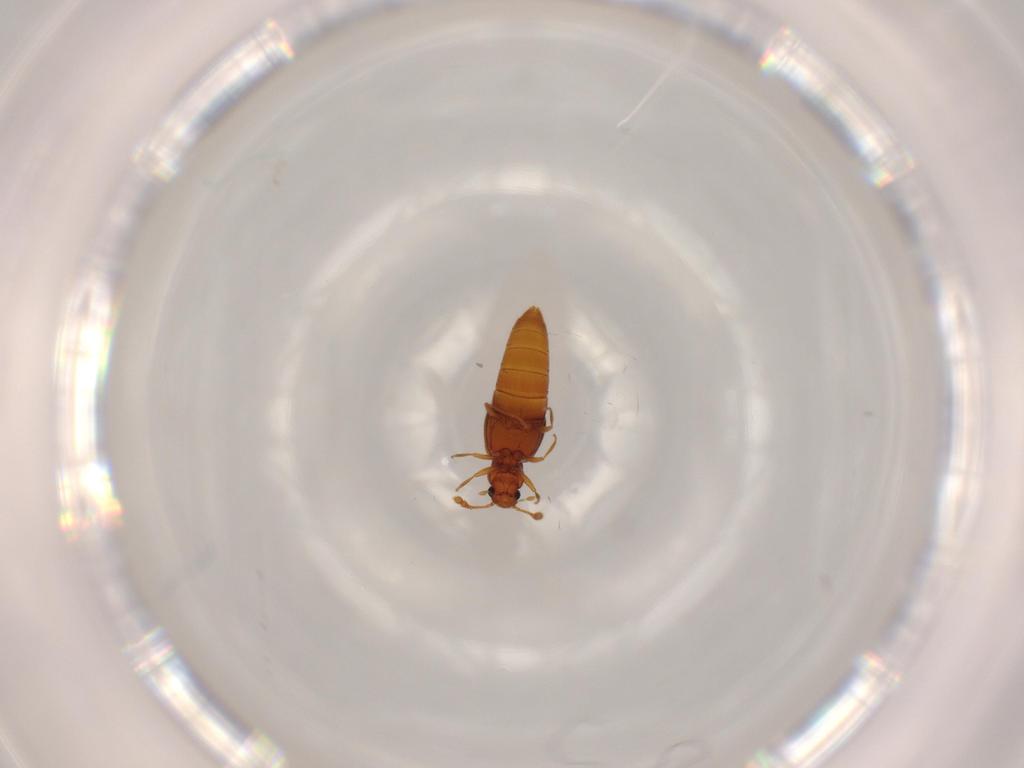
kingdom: Animalia
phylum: Arthropoda
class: Insecta
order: Coleoptera
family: Staphylinidae
